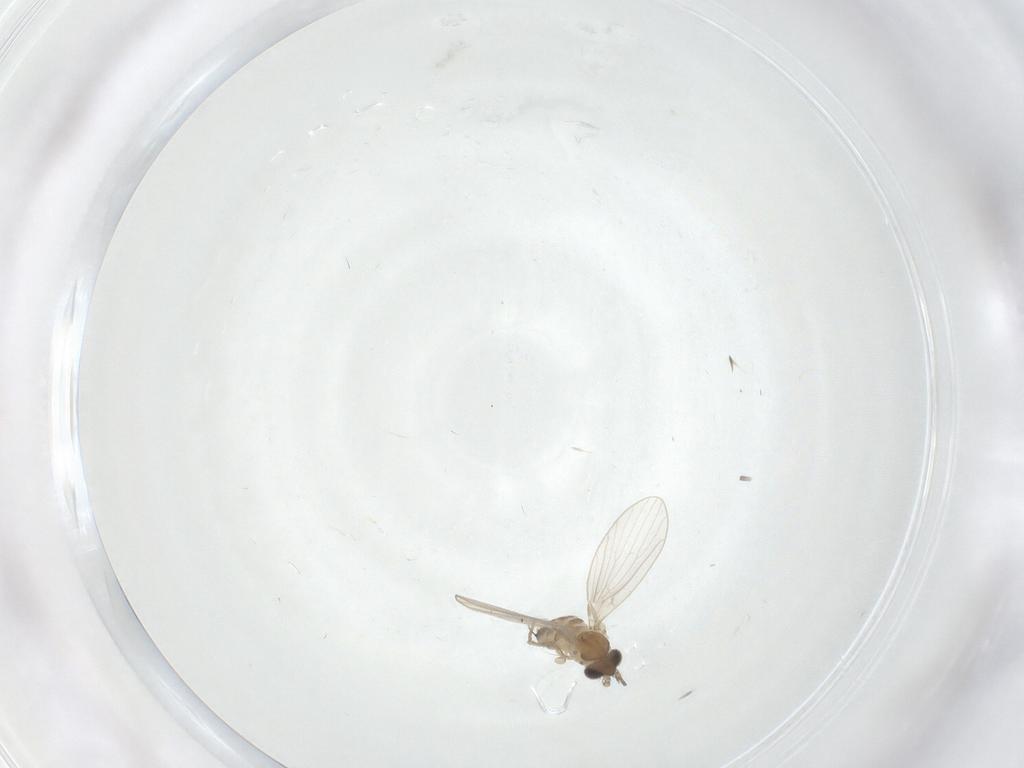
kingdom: Animalia
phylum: Arthropoda
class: Insecta
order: Diptera
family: Psychodidae
